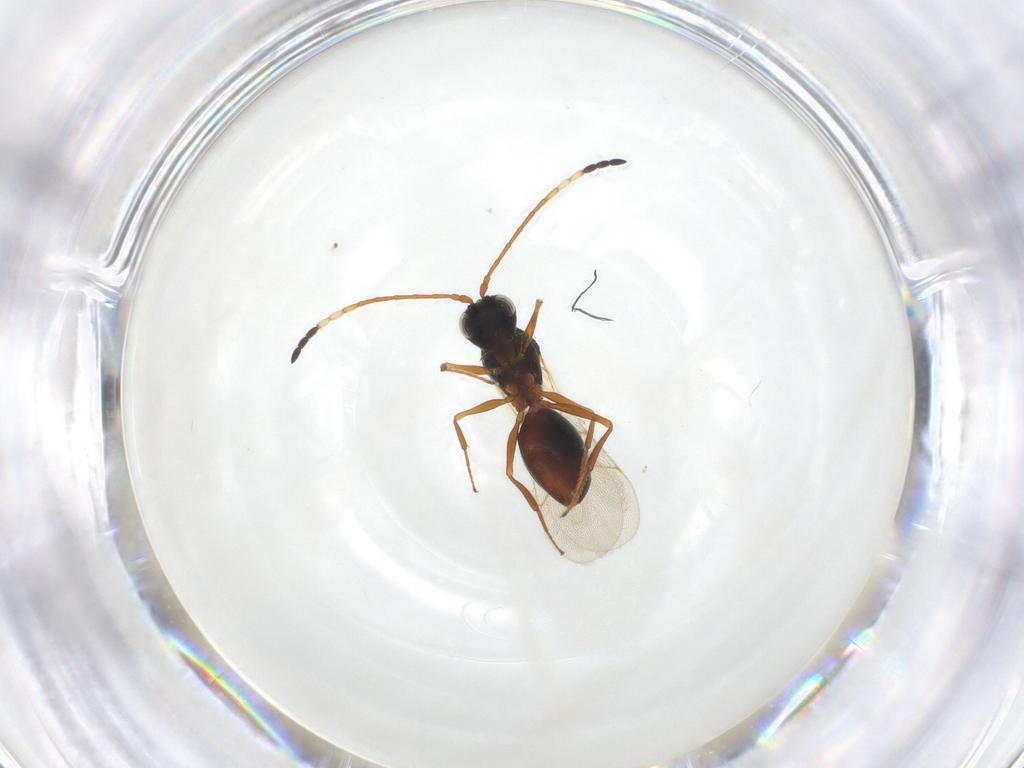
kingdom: Animalia
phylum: Arthropoda
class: Insecta
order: Hymenoptera
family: Scelionidae
